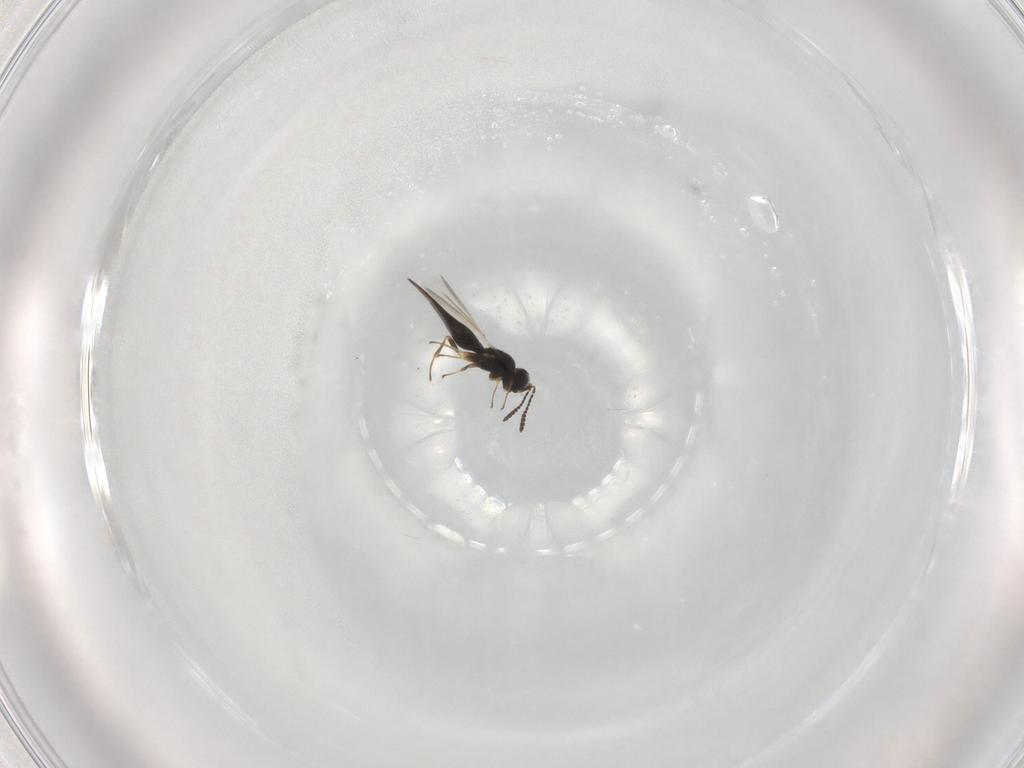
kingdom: Animalia
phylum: Arthropoda
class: Insecta
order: Hymenoptera
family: Scelionidae
